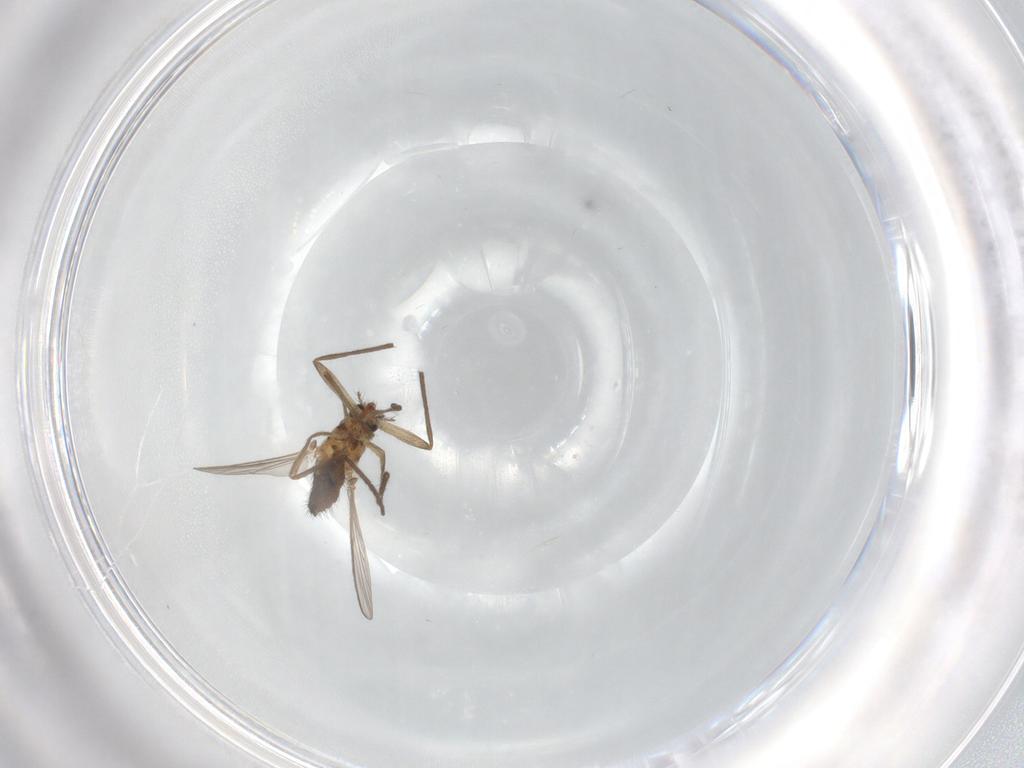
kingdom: Animalia
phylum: Arthropoda
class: Insecta
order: Diptera
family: Chironomidae
